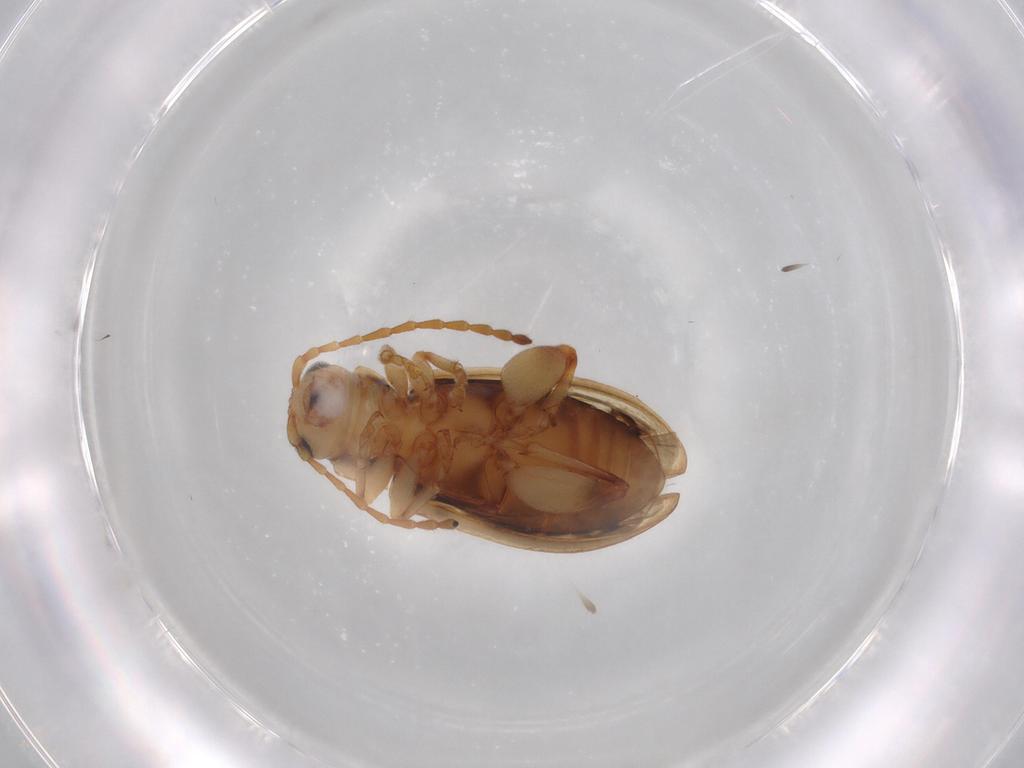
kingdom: Animalia
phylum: Arthropoda
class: Insecta
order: Coleoptera
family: Chrysomelidae
